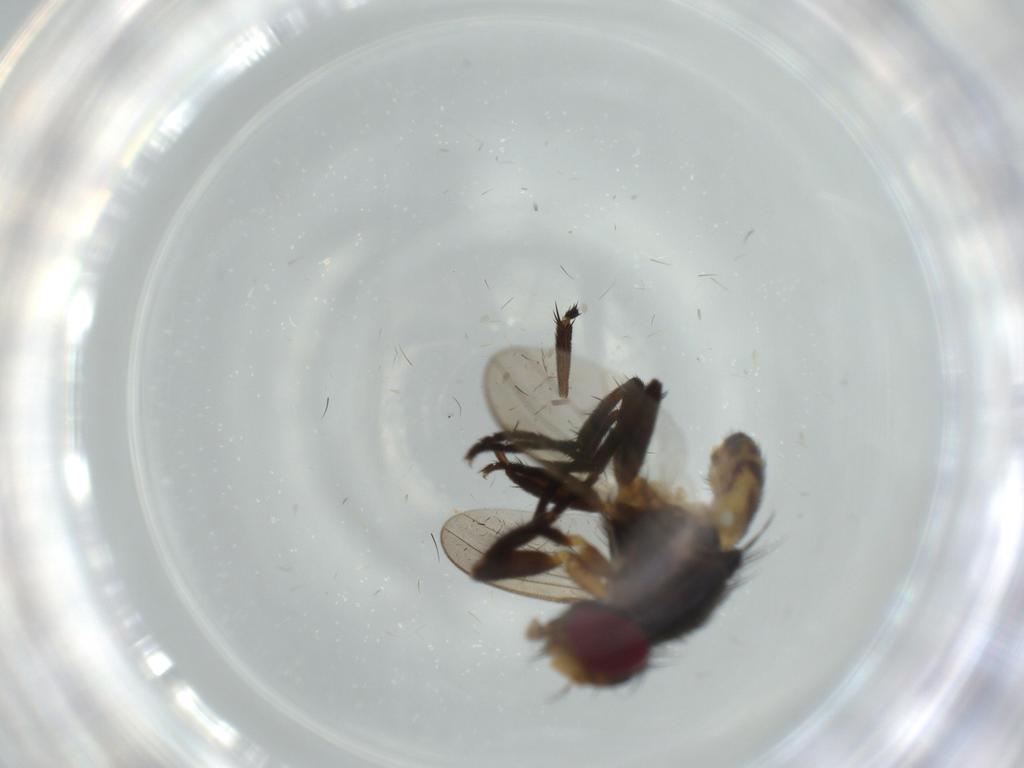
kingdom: Animalia
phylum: Arthropoda
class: Insecta
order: Diptera
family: Anthomyiidae
